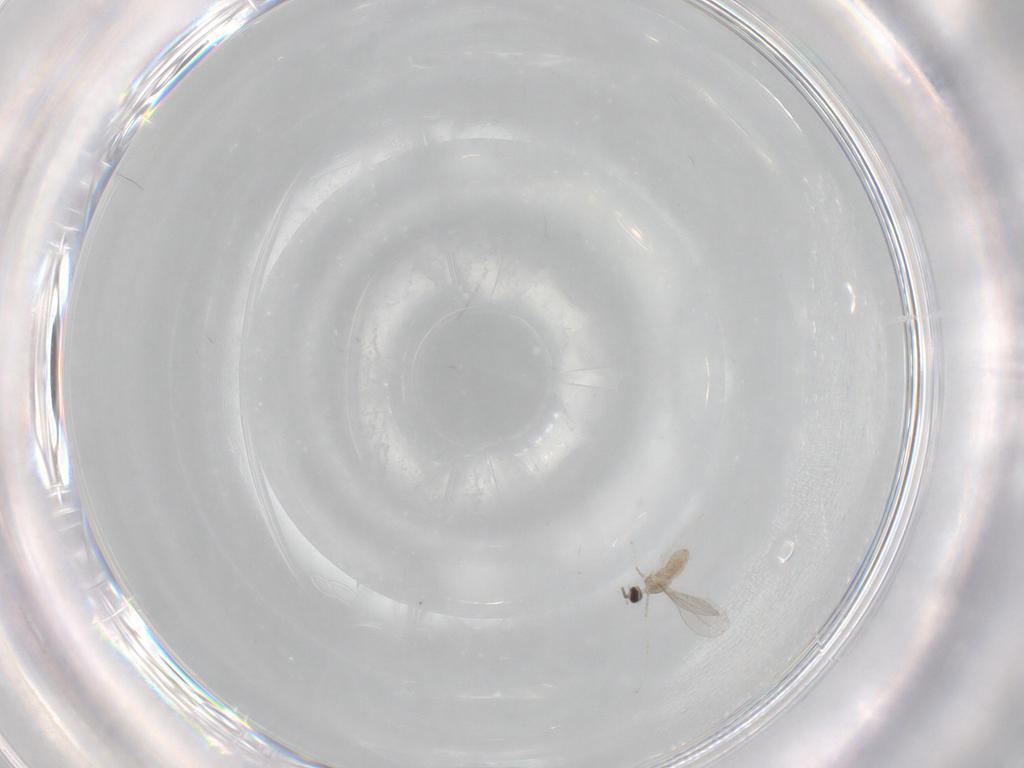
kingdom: Animalia
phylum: Arthropoda
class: Insecta
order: Diptera
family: Cecidomyiidae
